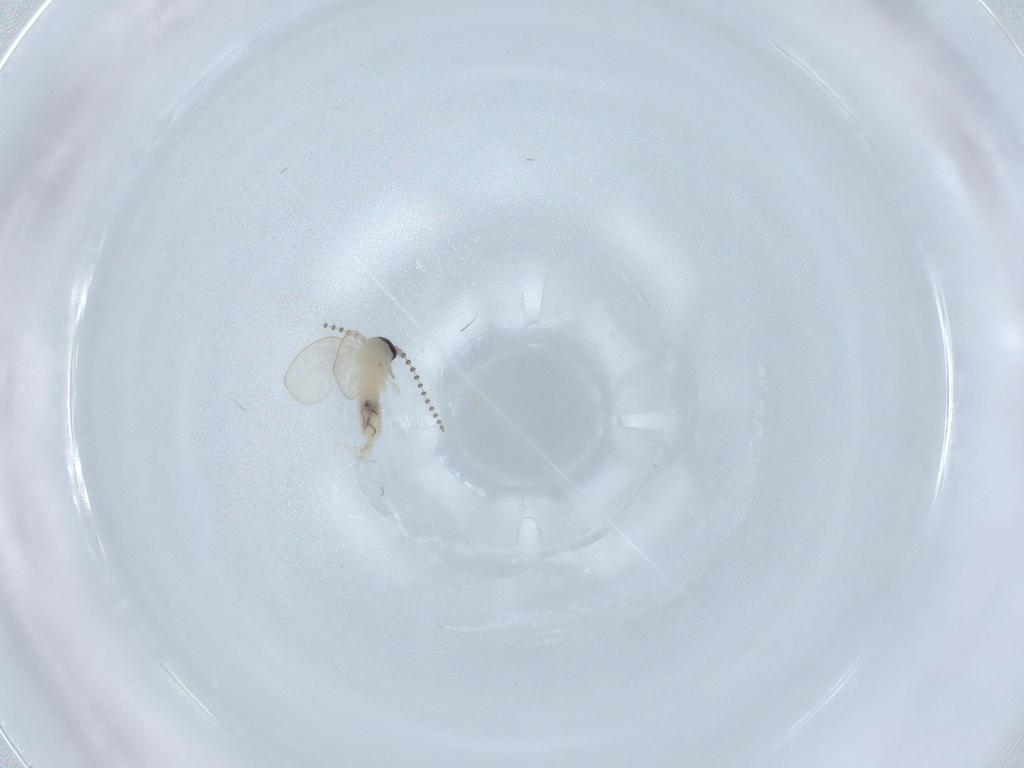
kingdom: Animalia
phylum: Arthropoda
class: Insecta
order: Diptera
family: Psychodidae
